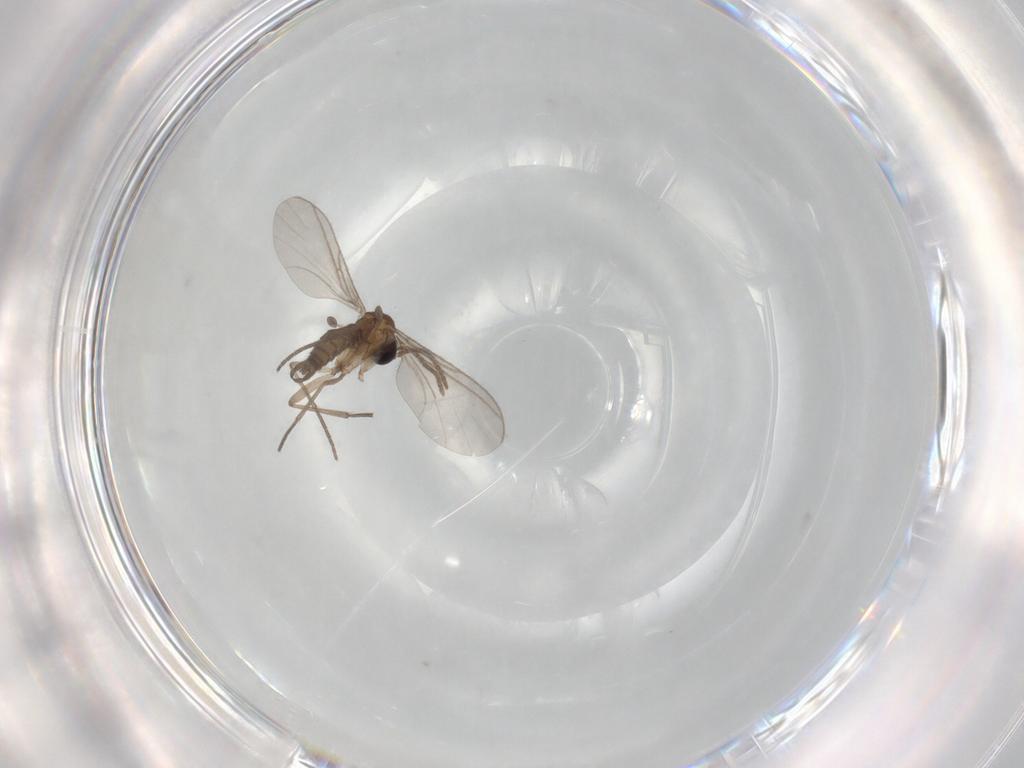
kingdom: Animalia
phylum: Arthropoda
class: Insecta
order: Diptera
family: Sciaridae
